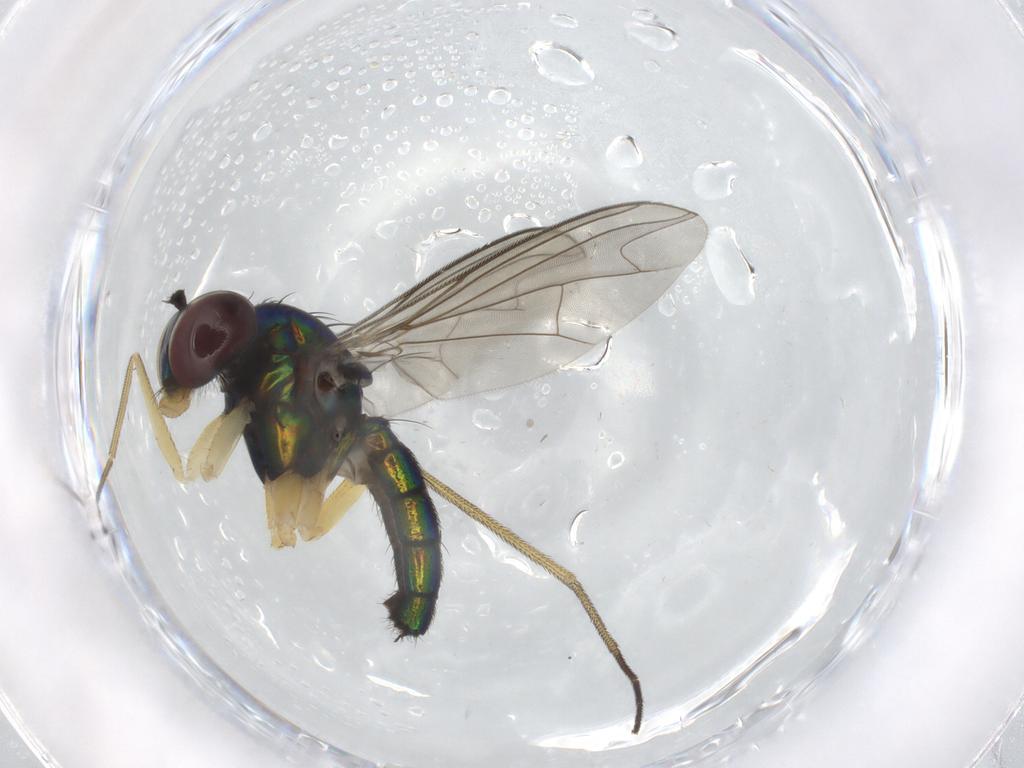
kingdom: Animalia
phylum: Arthropoda
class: Insecta
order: Diptera
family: Dolichopodidae
